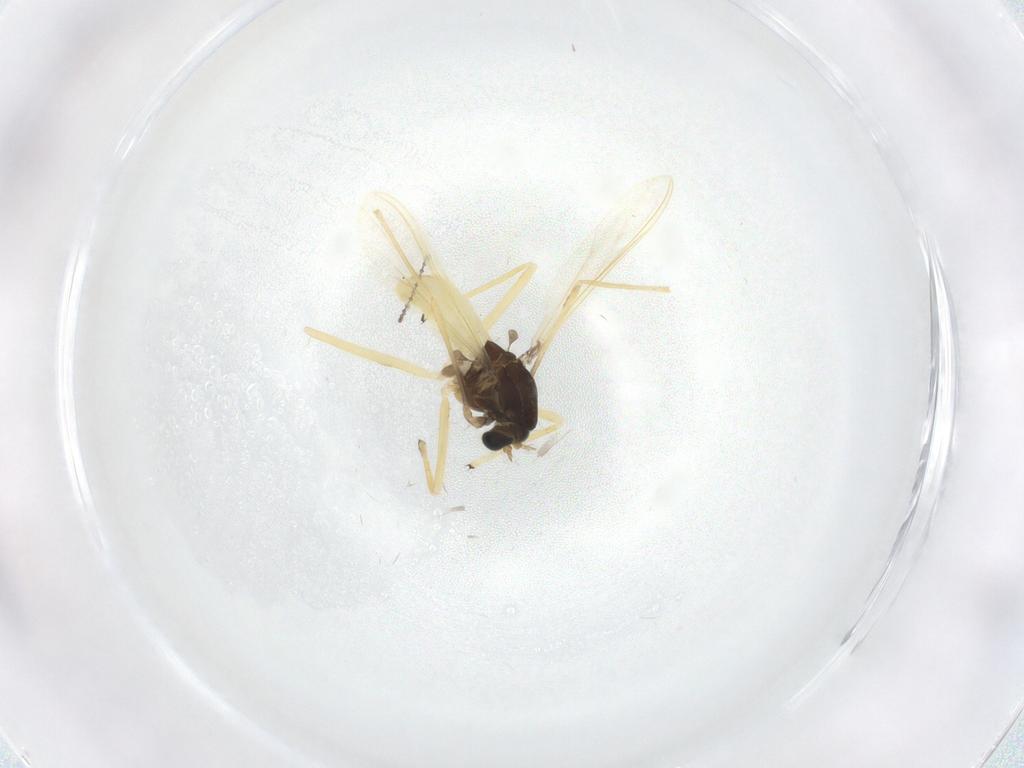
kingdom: Animalia
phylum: Arthropoda
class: Insecta
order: Diptera
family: Chironomidae
